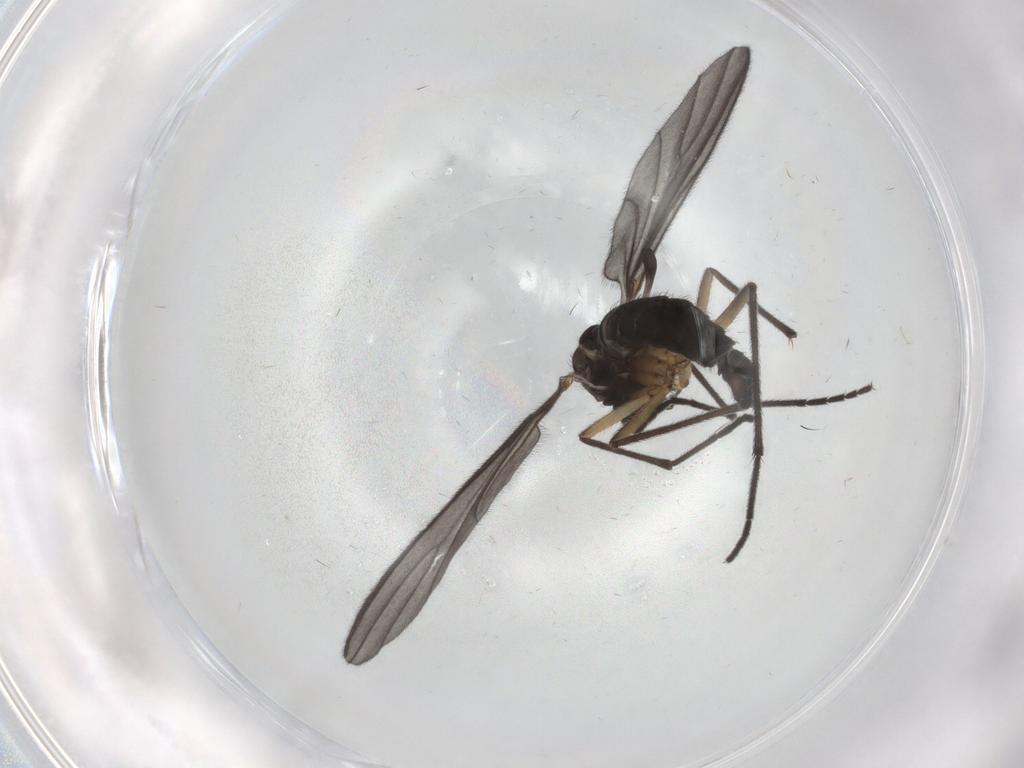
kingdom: Animalia
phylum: Arthropoda
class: Insecta
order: Diptera
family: Sciaridae
